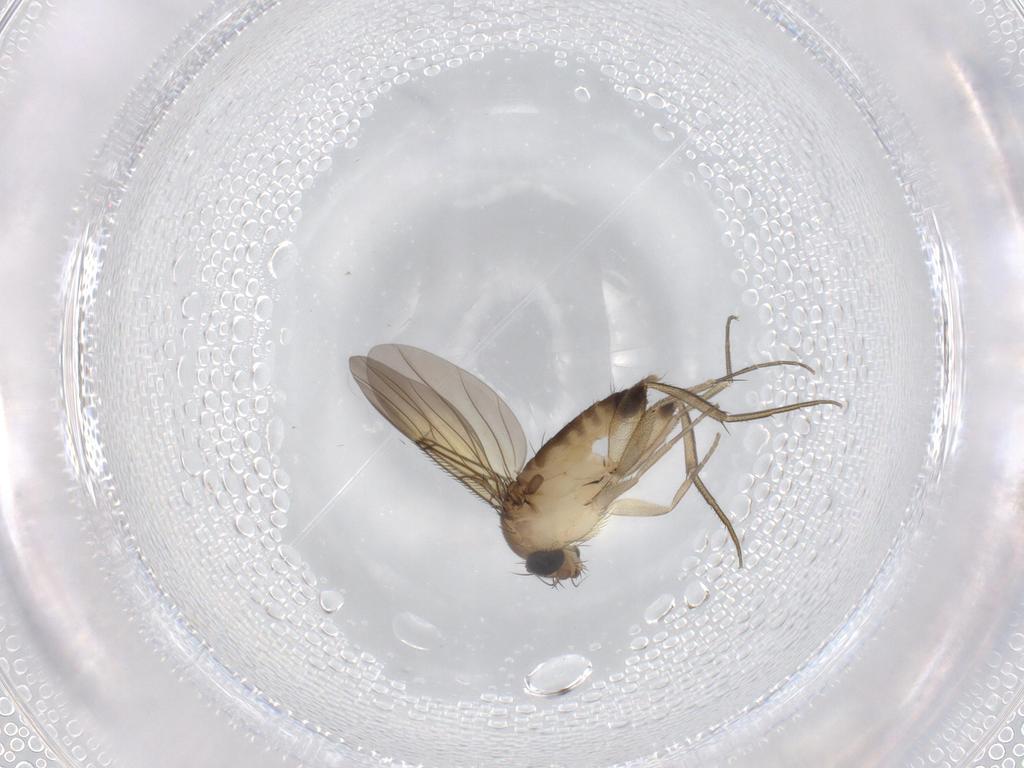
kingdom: Animalia
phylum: Arthropoda
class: Insecta
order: Diptera
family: Phoridae
